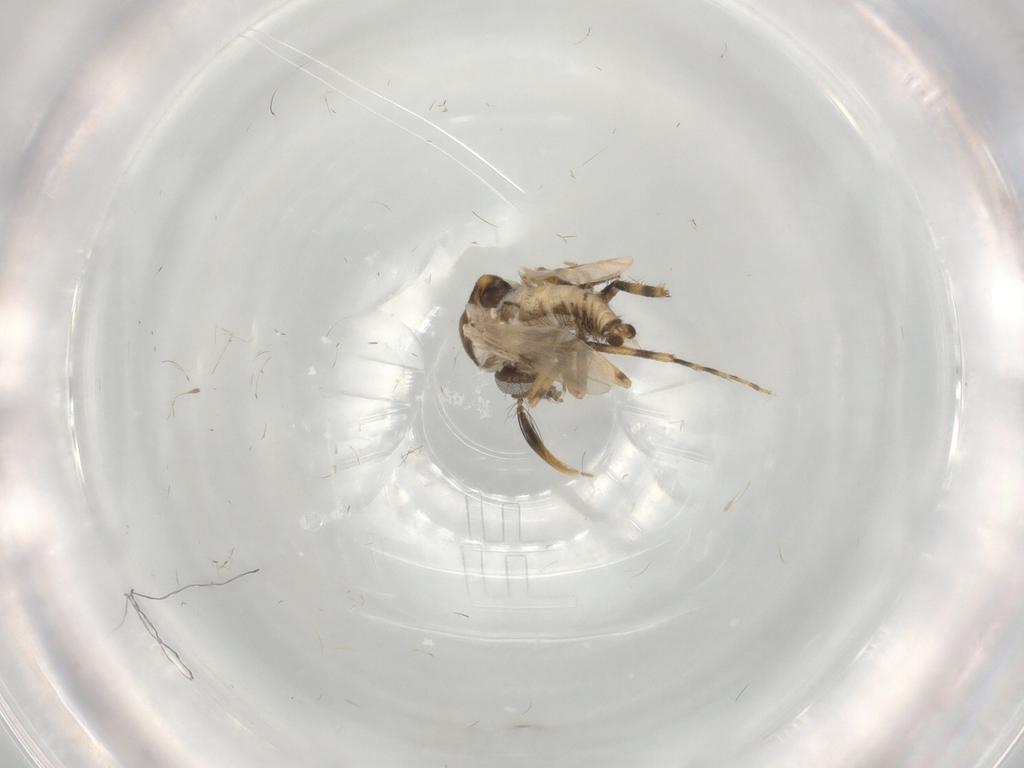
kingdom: Animalia
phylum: Arthropoda
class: Insecta
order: Diptera
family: Ceratopogonidae
